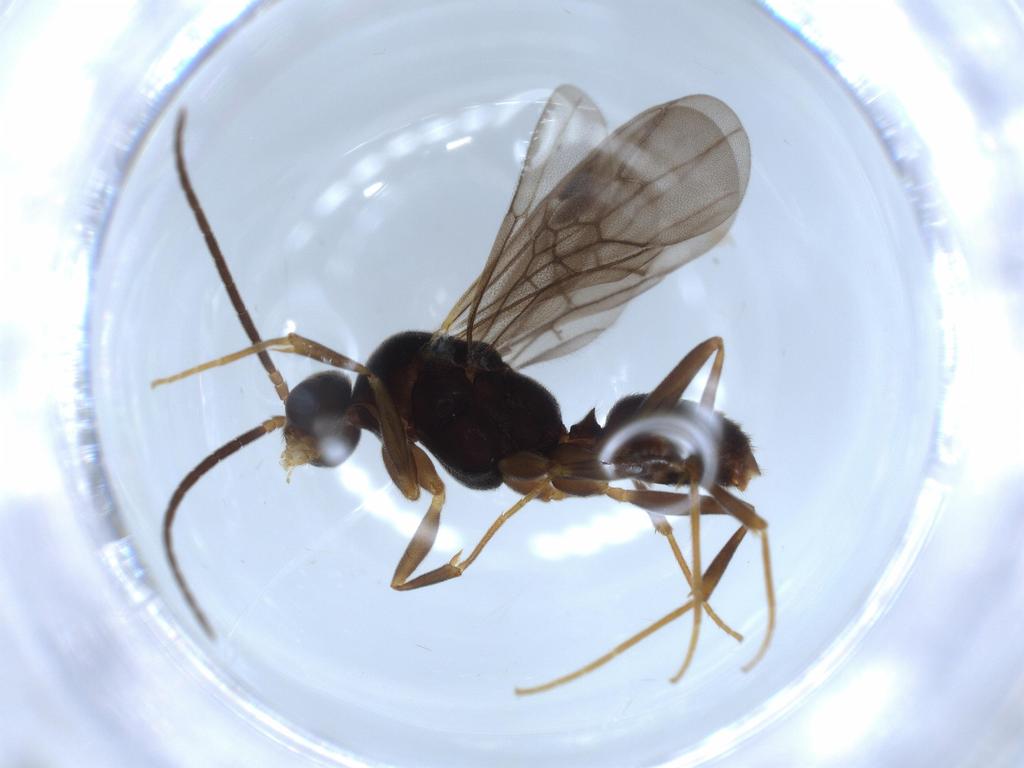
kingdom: Animalia
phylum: Arthropoda
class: Insecta
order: Hymenoptera
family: Formicidae
